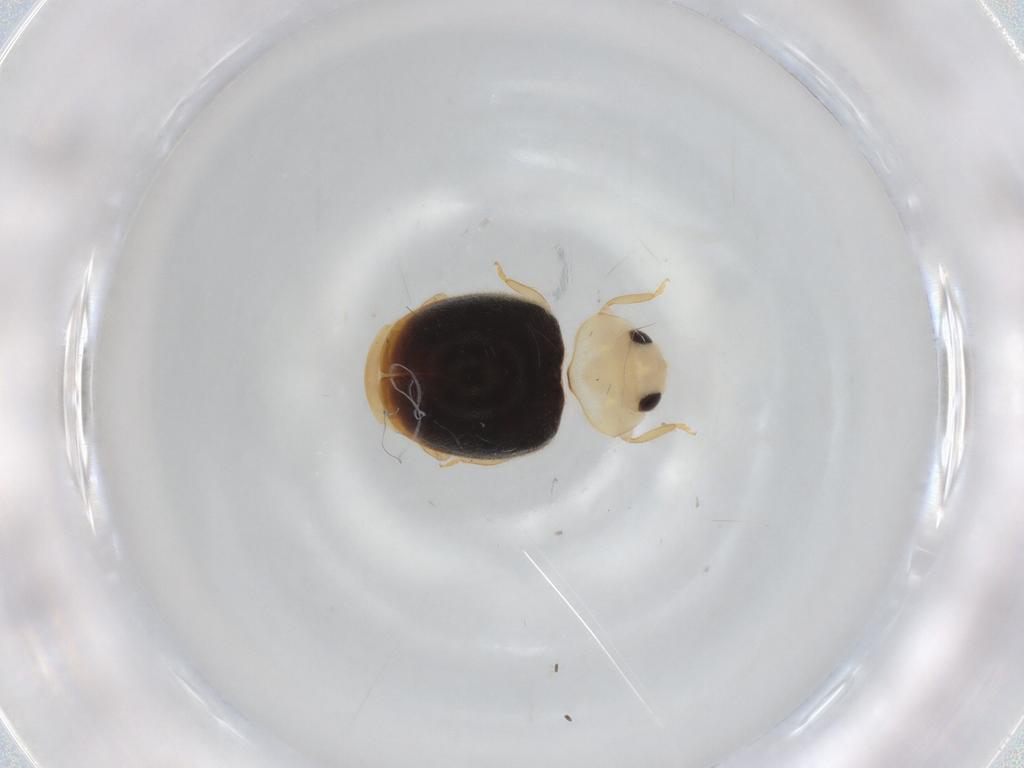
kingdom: Animalia
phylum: Arthropoda
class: Insecta
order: Coleoptera
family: Coccinellidae
